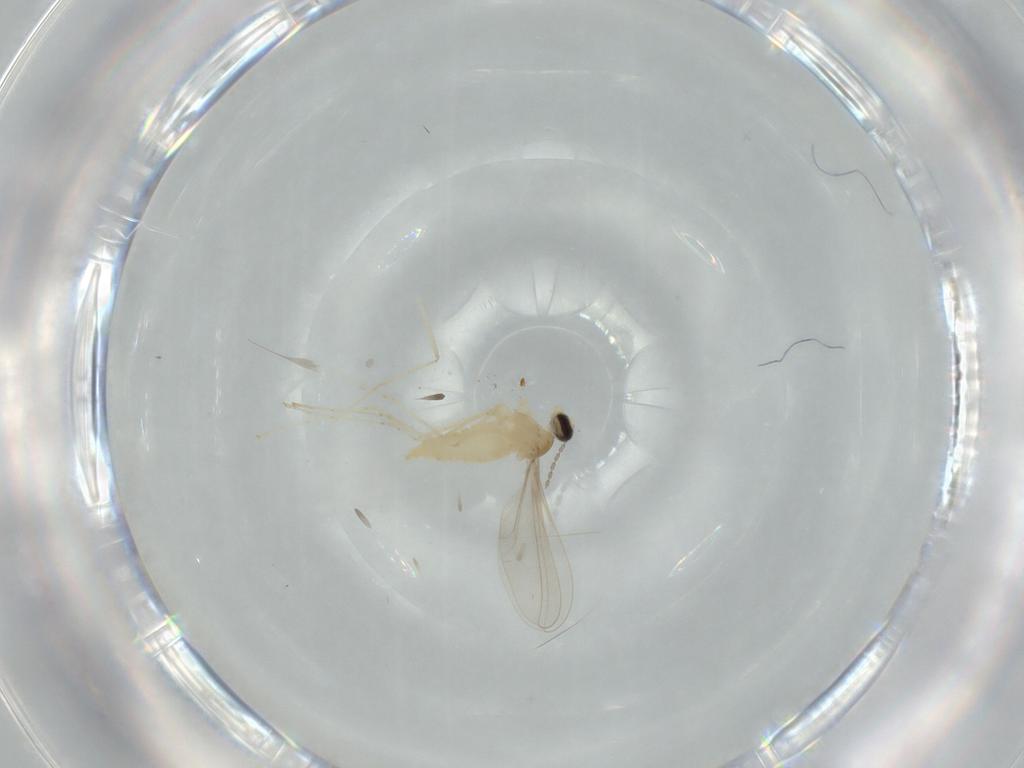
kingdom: Animalia
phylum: Arthropoda
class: Insecta
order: Diptera
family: Cecidomyiidae
